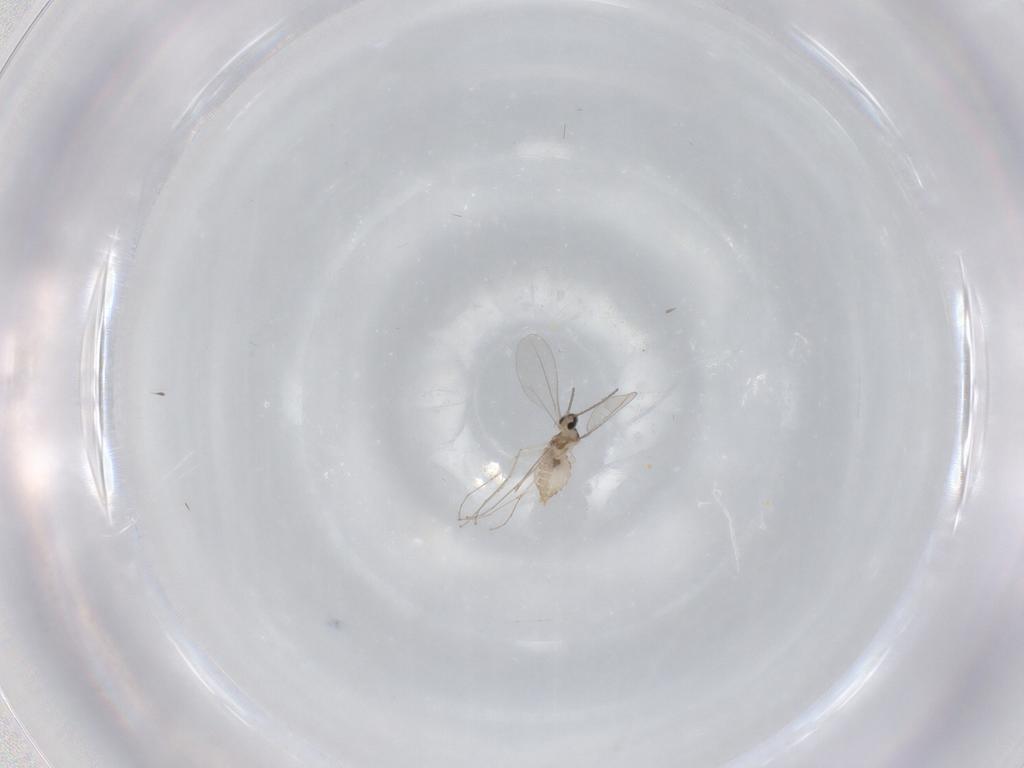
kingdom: Animalia
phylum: Arthropoda
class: Insecta
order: Diptera
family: Cecidomyiidae
